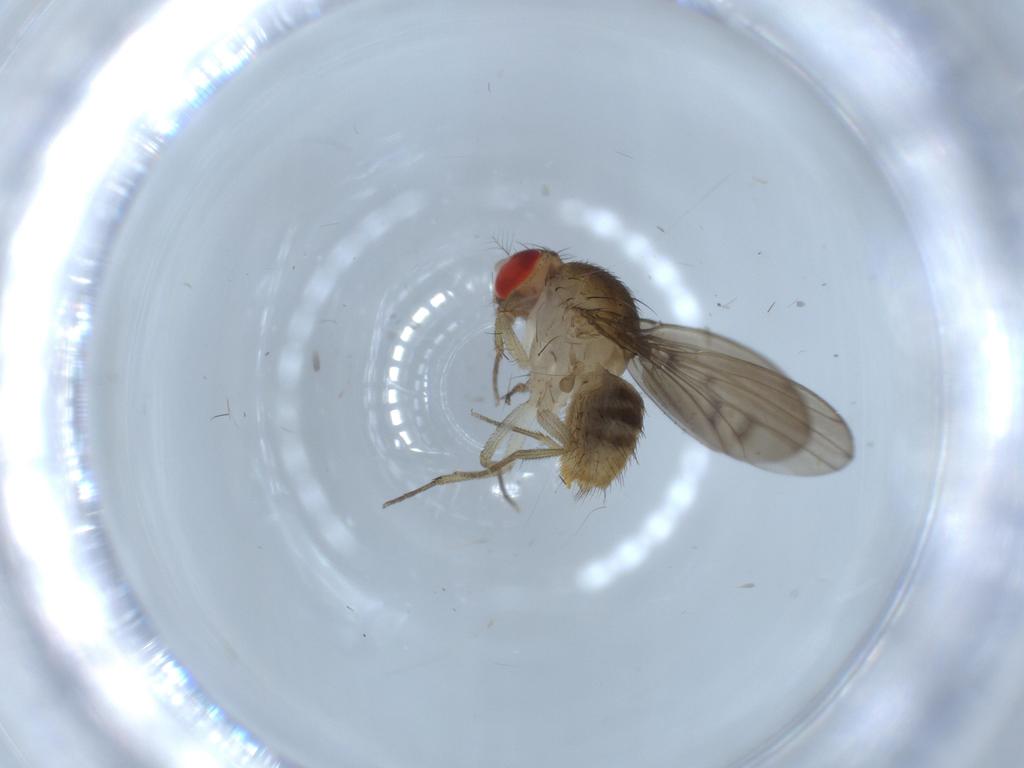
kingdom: Animalia
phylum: Arthropoda
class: Insecta
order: Diptera
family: Drosophilidae
